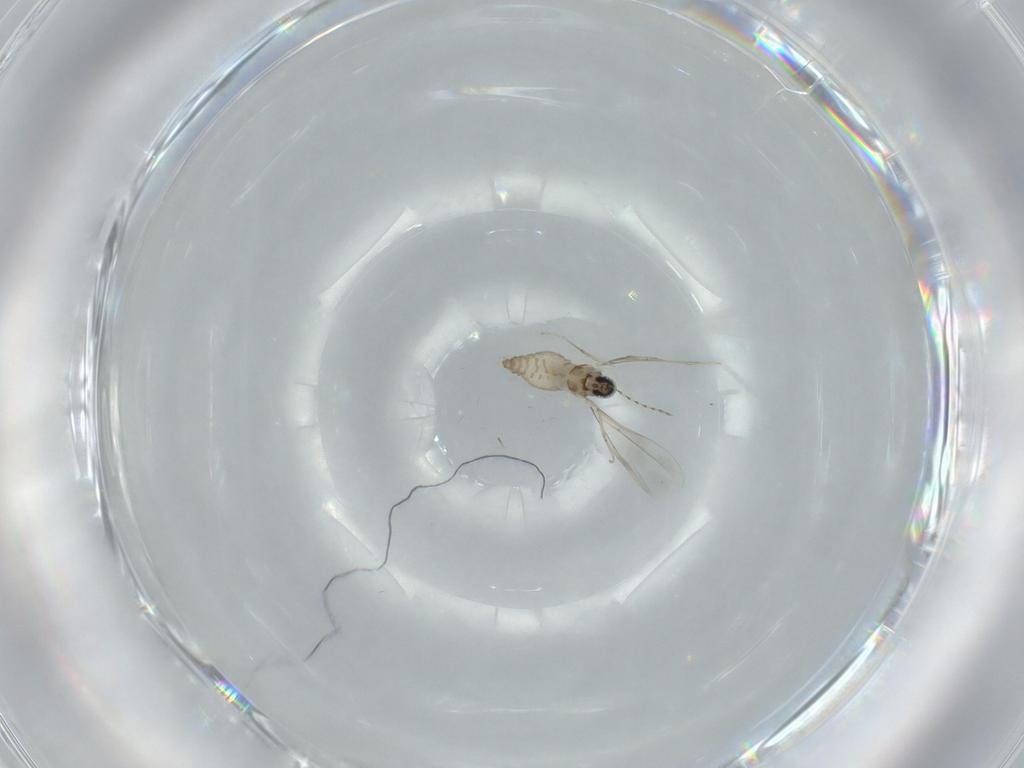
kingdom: Animalia
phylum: Arthropoda
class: Insecta
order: Diptera
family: Cecidomyiidae
